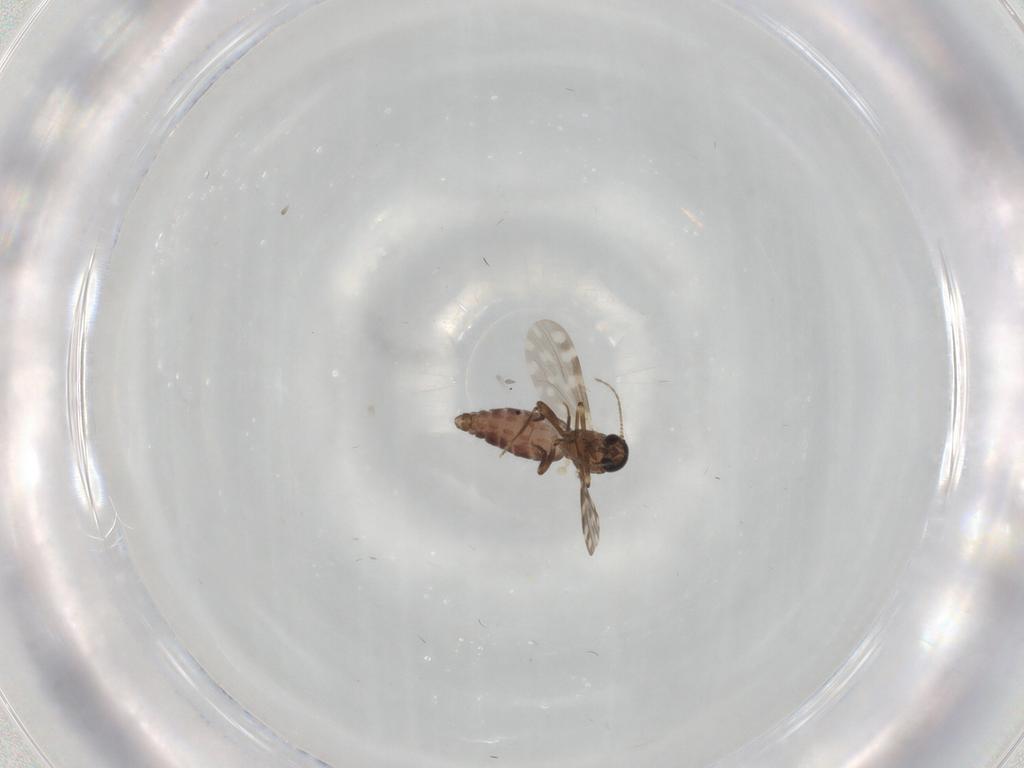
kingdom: Animalia
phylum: Arthropoda
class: Insecta
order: Diptera
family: Ceratopogonidae
